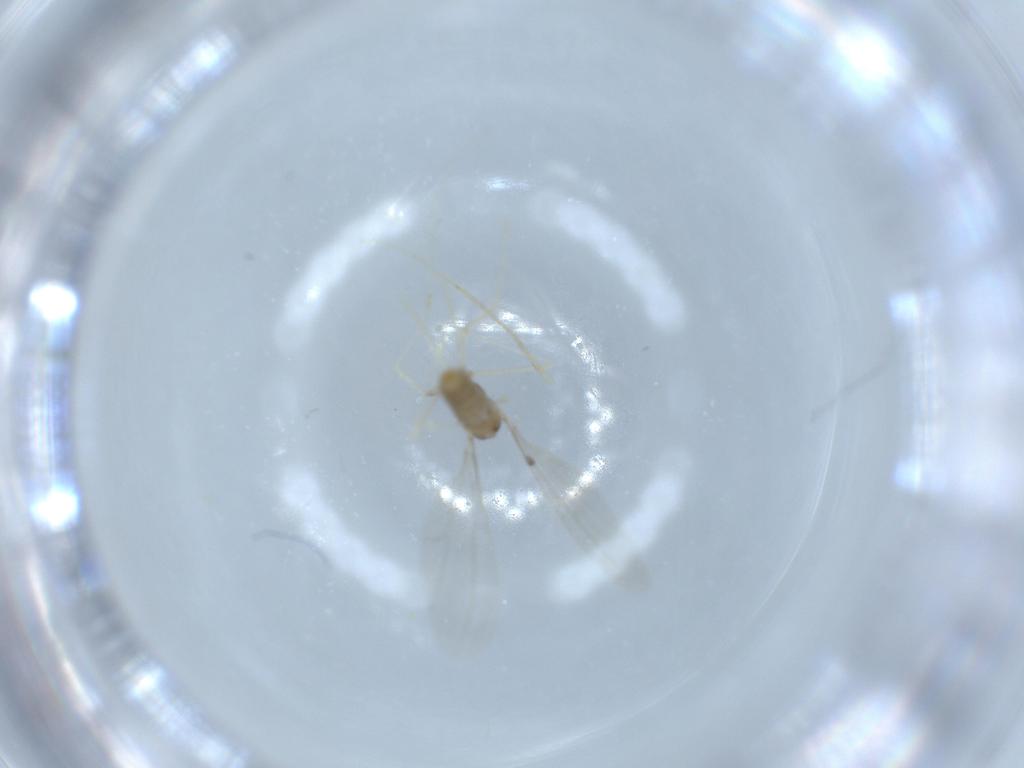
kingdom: Animalia
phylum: Arthropoda
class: Insecta
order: Diptera
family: Cecidomyiidae
